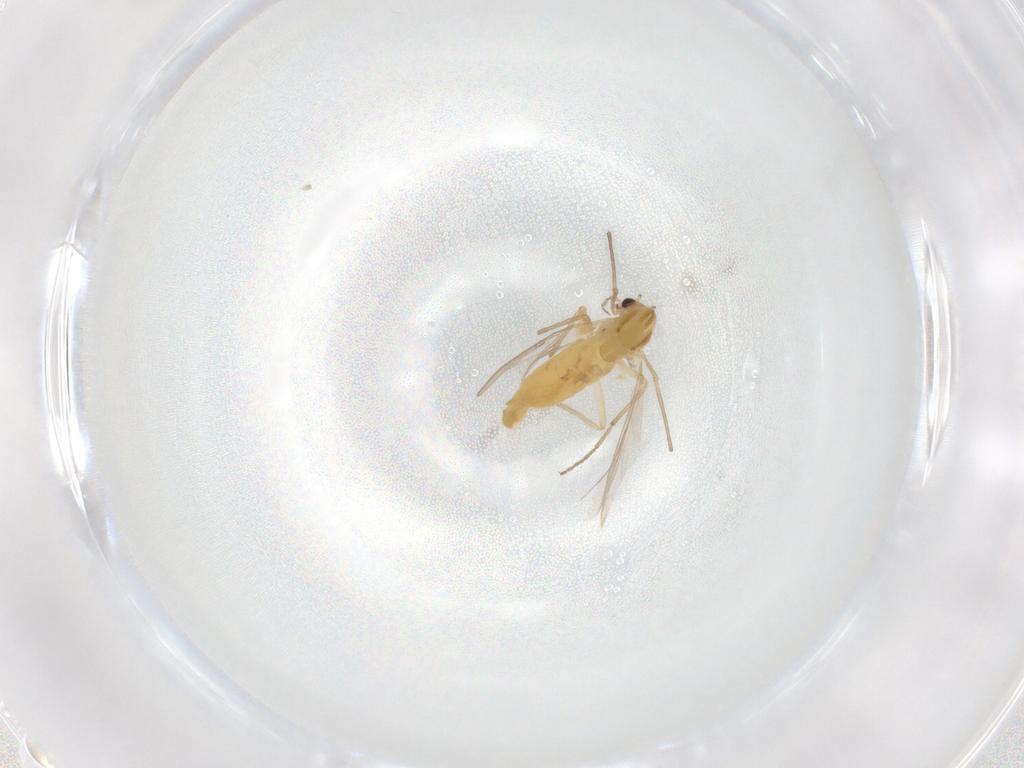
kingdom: Animalia
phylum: Arthropoda
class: Insecta
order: Diptera
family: Chironomidae
